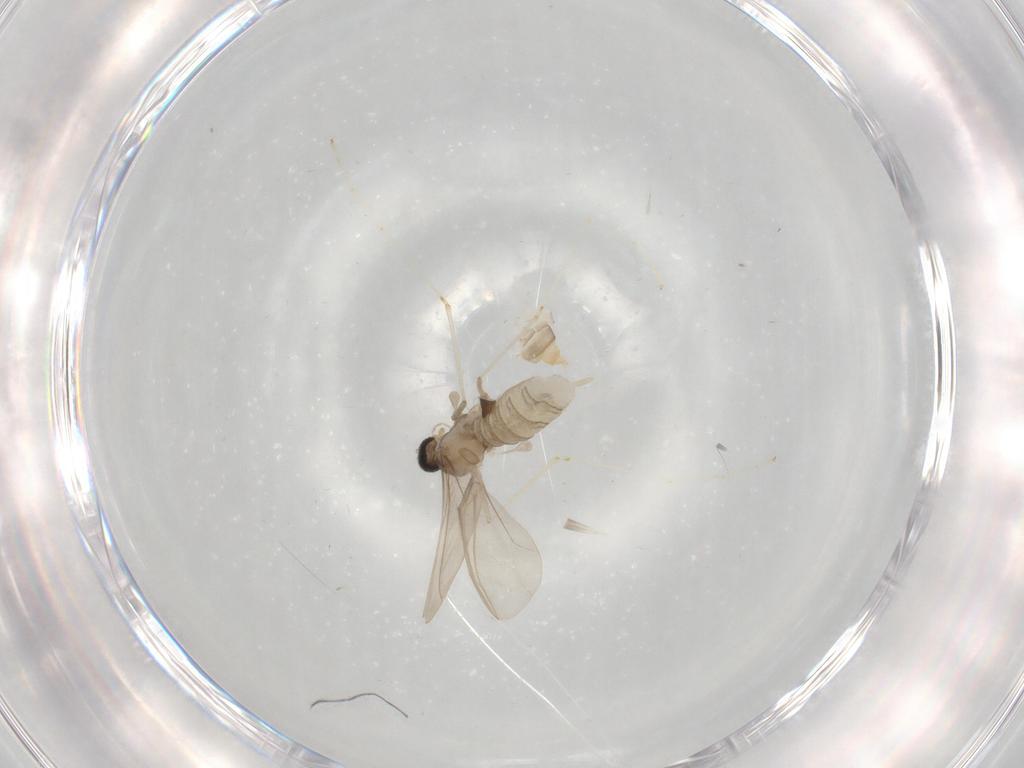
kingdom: Animalia
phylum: Arthropoda
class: Insecta
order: Diptera
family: Cecidomyiidae
